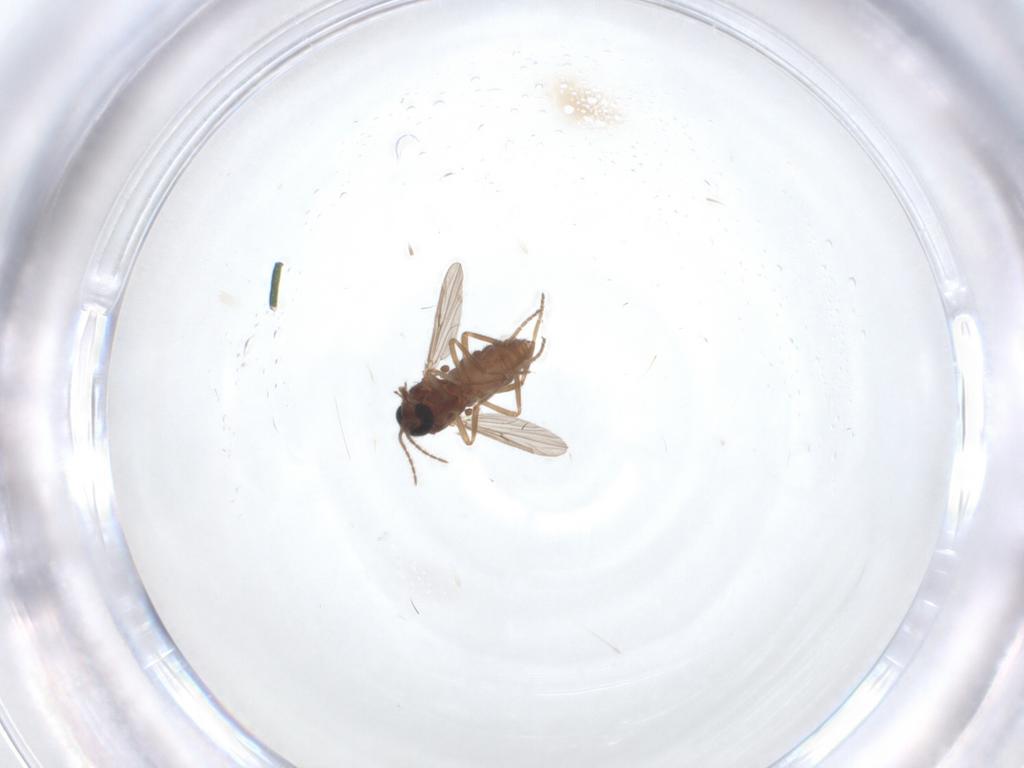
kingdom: Animalia
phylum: Arthropoda
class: Insecta
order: Diptera
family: Ceratopogonidae
